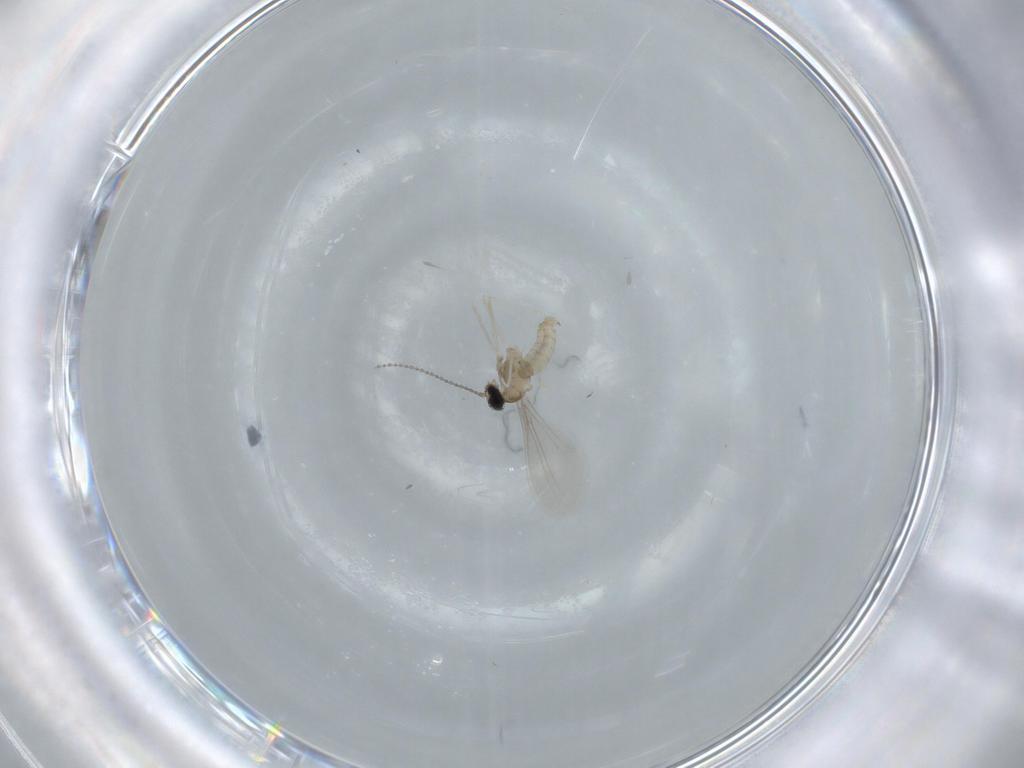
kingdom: Animalia
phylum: Arthropoda
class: Insecta
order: Diptera
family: Cecidomyiidae
